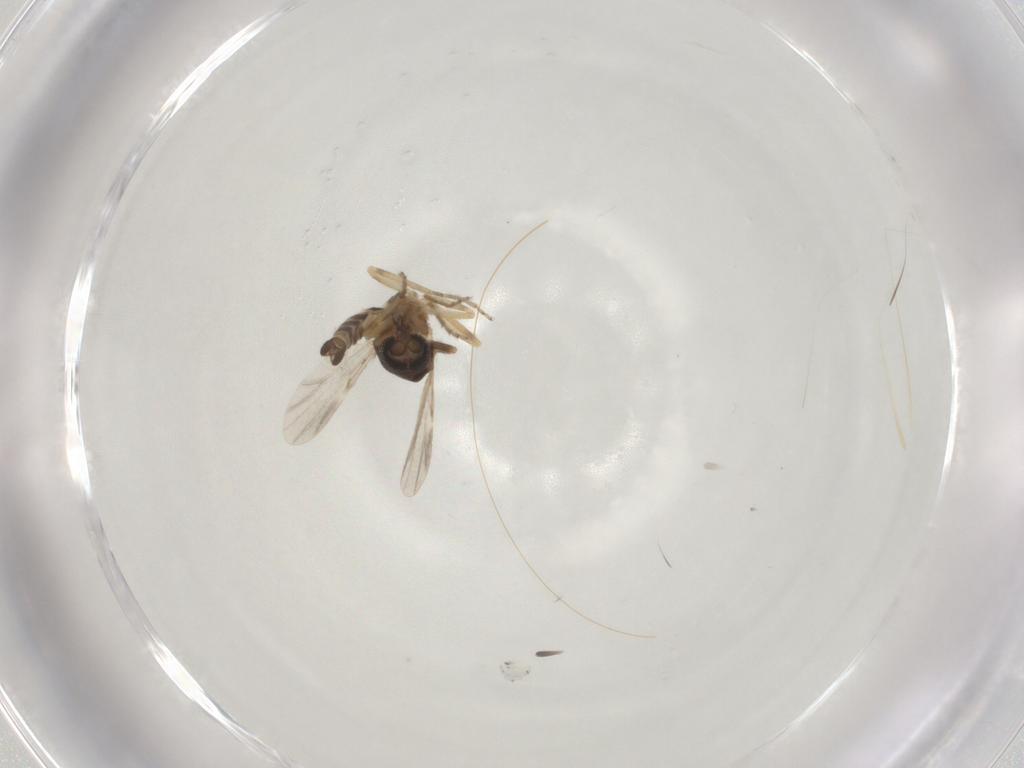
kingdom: Animalia
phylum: Arthropoda
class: Insecta
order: Diptera
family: Ceratopogonidae
